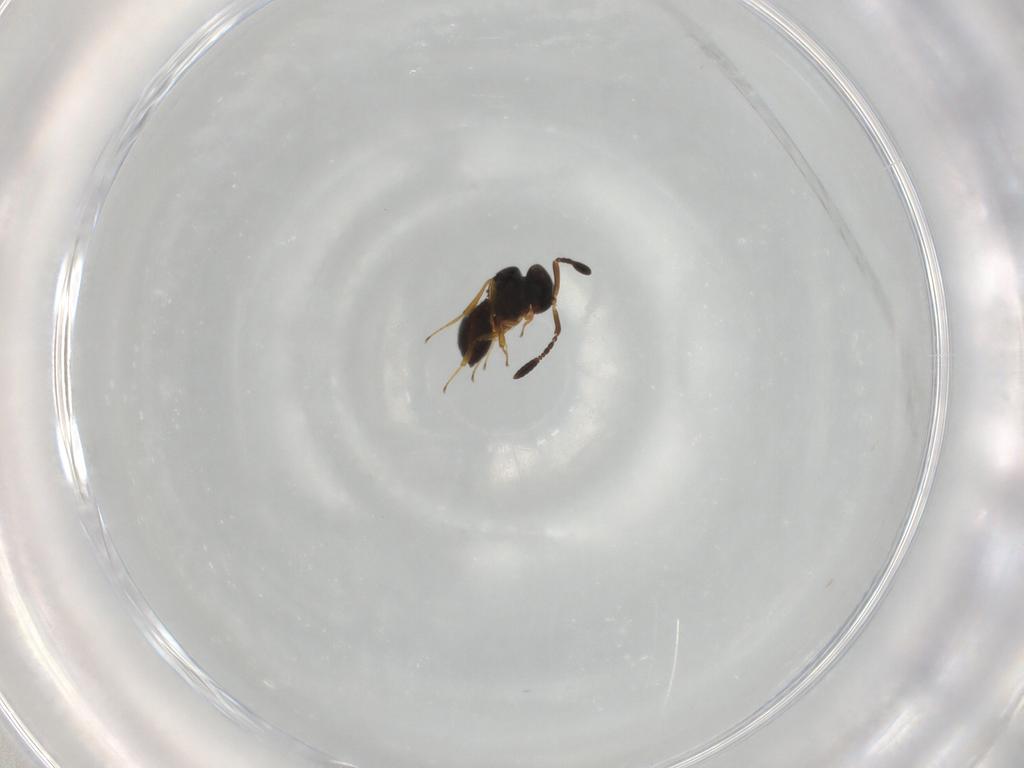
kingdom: Animalia
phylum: Arthropoda
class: Insecta
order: Hymenoptera
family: Scelionidae
